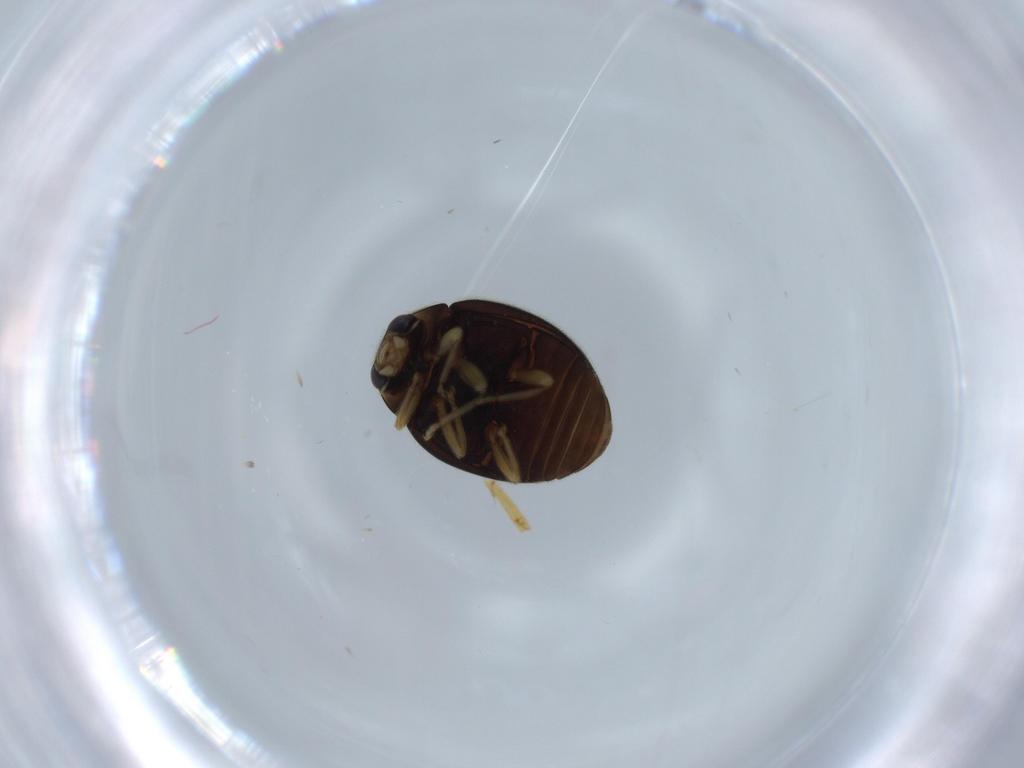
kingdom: Animalia
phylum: Arthropoda
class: Insecta
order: Coleoptera
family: Coccinellidae
